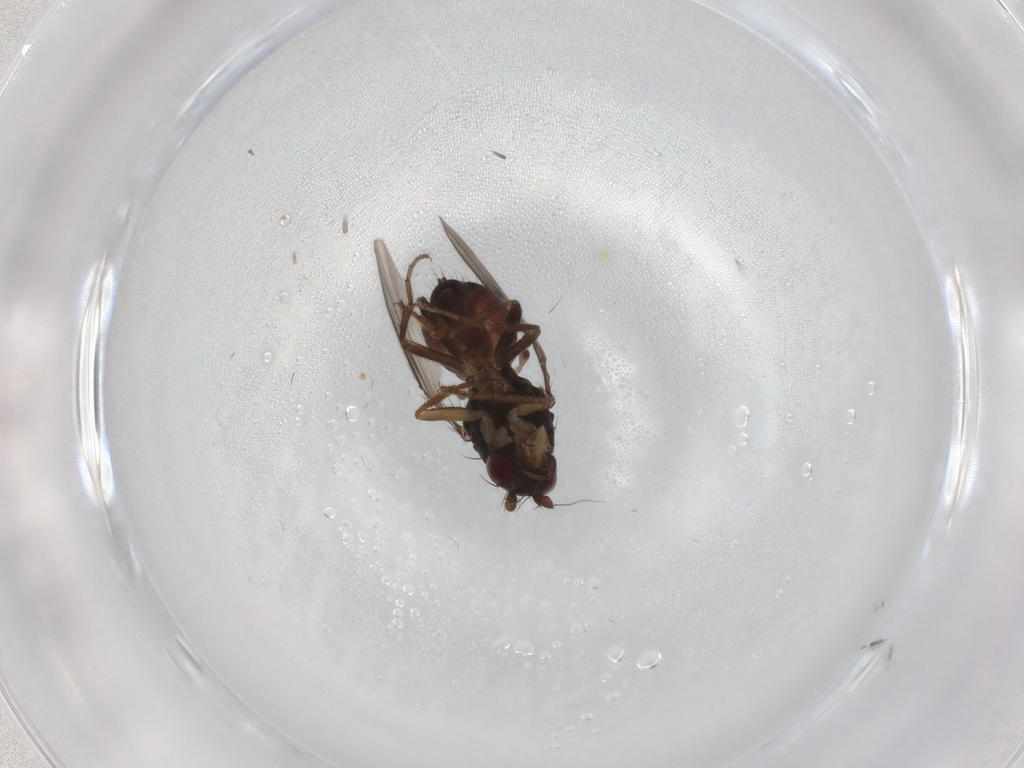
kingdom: Animalia
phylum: Arthropoda
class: Insecta
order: Diptera
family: Sphaeroceridae
